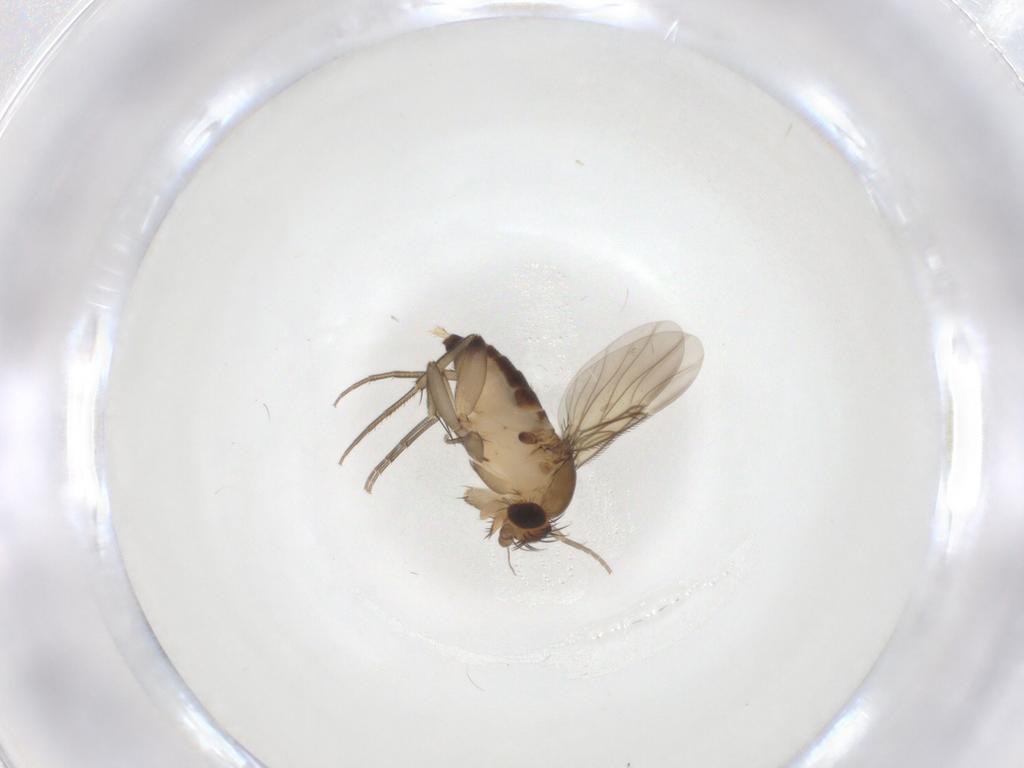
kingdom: Animalia
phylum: Arthropoda
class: Insecta
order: Diptera
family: Phoridae
